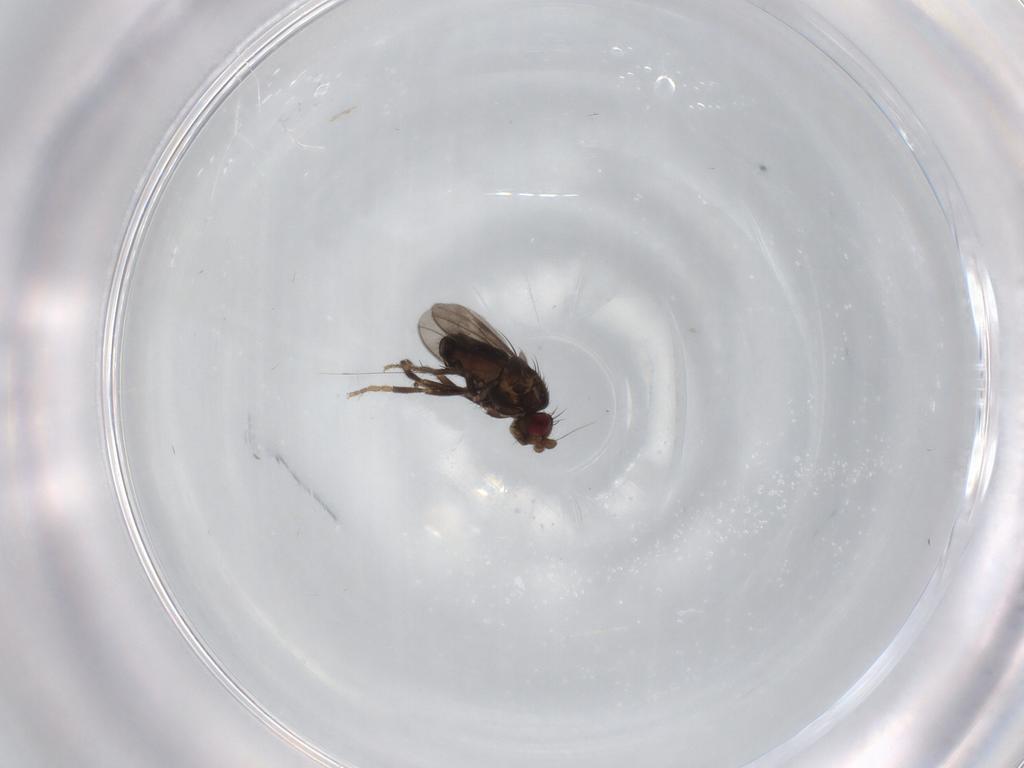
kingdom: Animalia
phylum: Arthropoda
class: Insecta
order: Diptera
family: Sphaeroceridae
